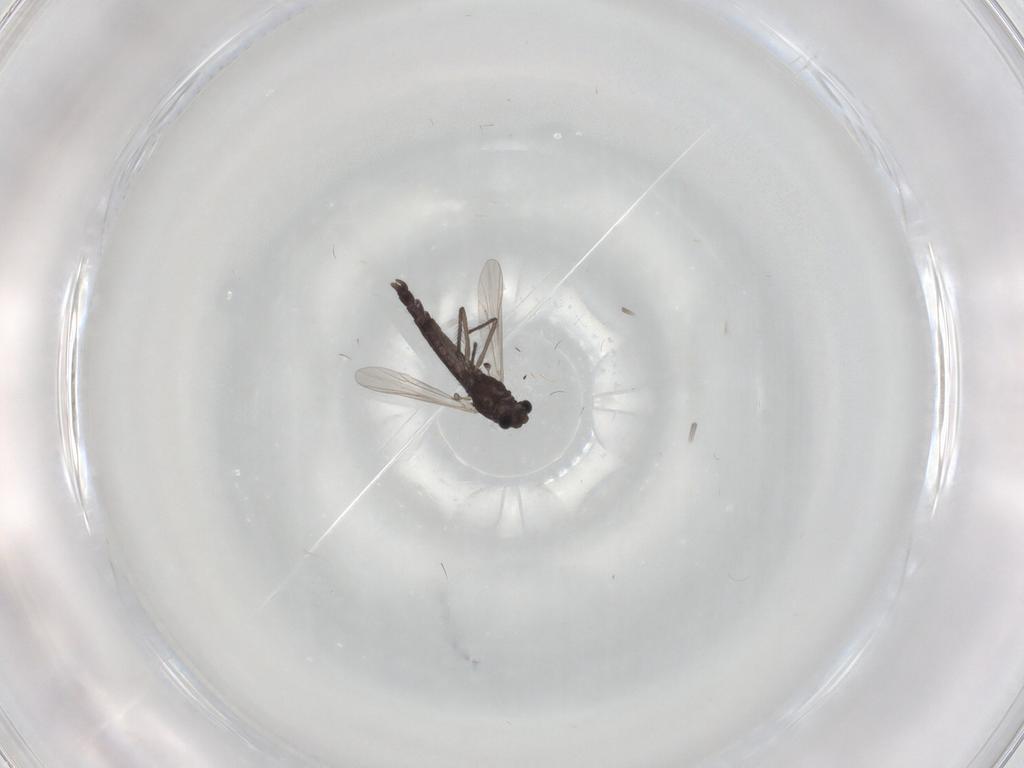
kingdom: Animalia
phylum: Arthropoda
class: Insecta
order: Diptera
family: Chironomidae
